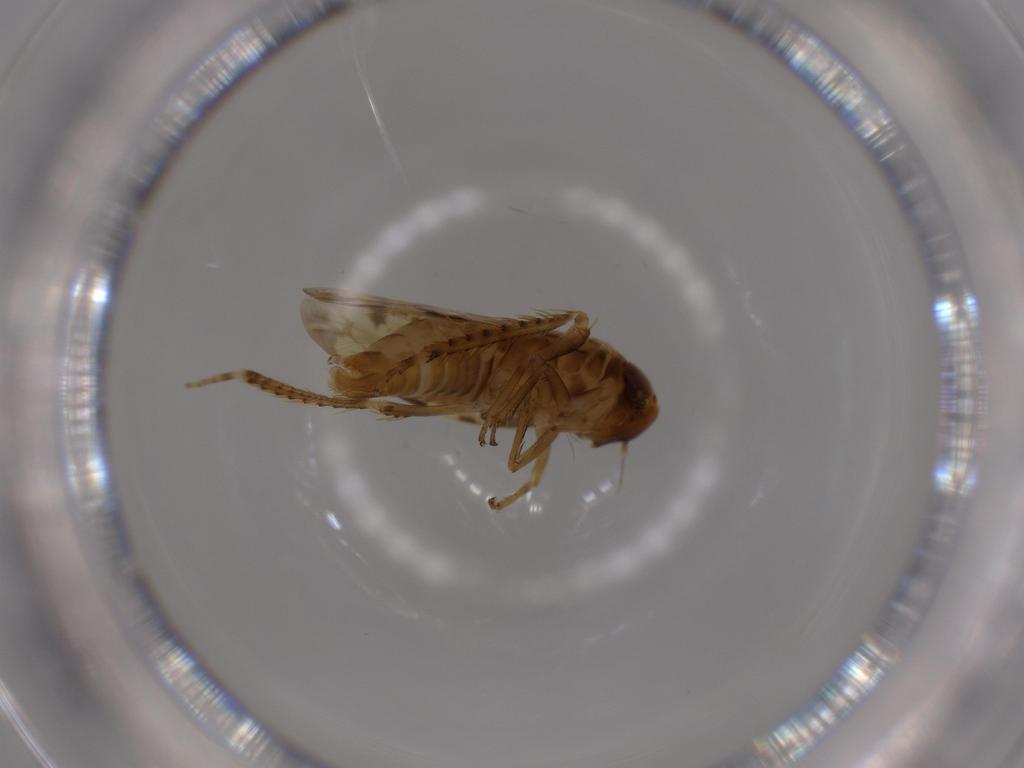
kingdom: Animalia
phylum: Arthropoda
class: Insecta
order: Hemiptera
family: Cicadellidae
